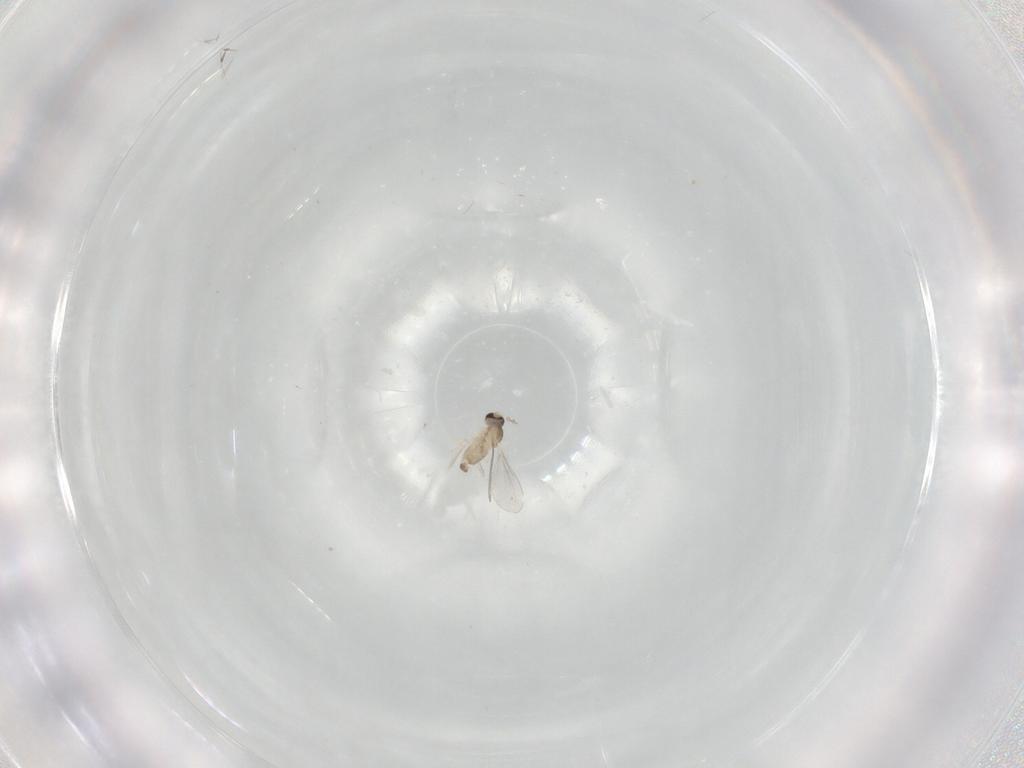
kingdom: Animalia
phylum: Arthropoda
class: Insecta
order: Diptera
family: Cecidomyiidae
